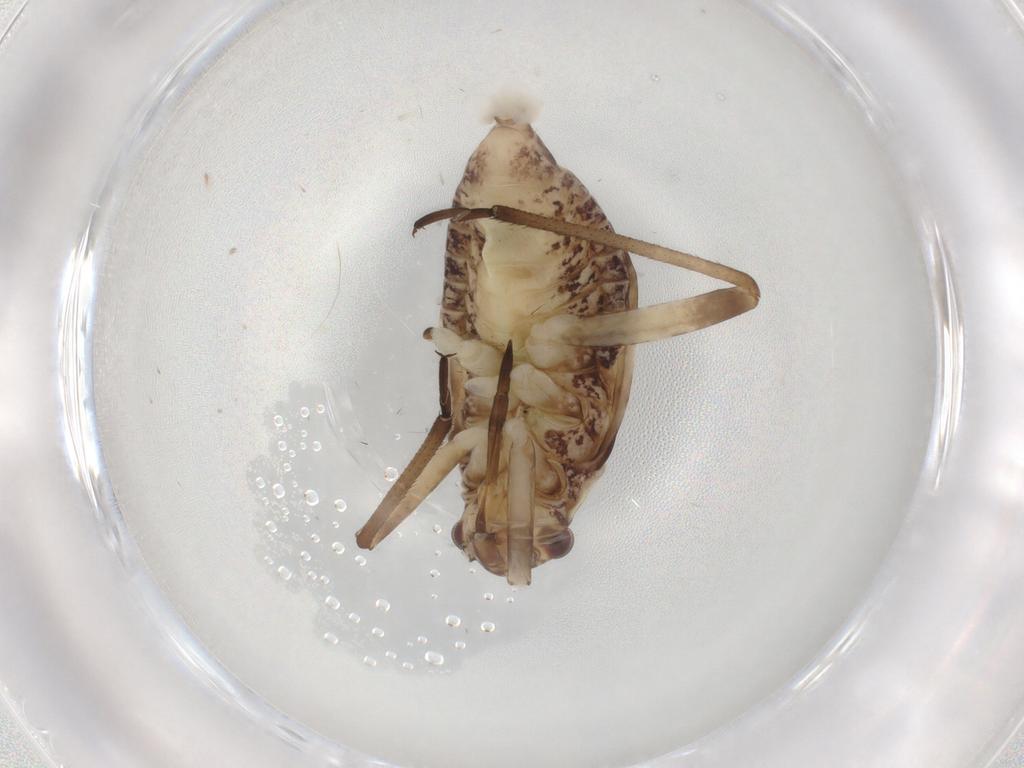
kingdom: Animalia
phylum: Arthropoda
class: Insecta
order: Hemiptera
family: Miridae
